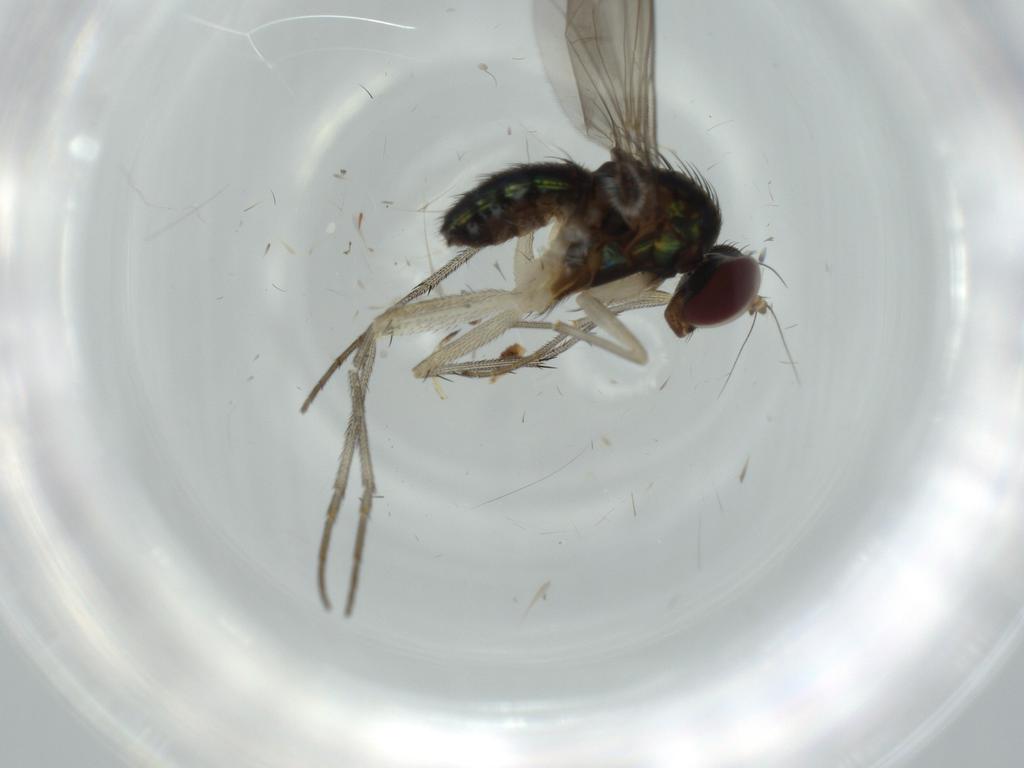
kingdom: Animalia
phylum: Arthropoda
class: Insecta
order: Diptera
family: Dolichopodidae
